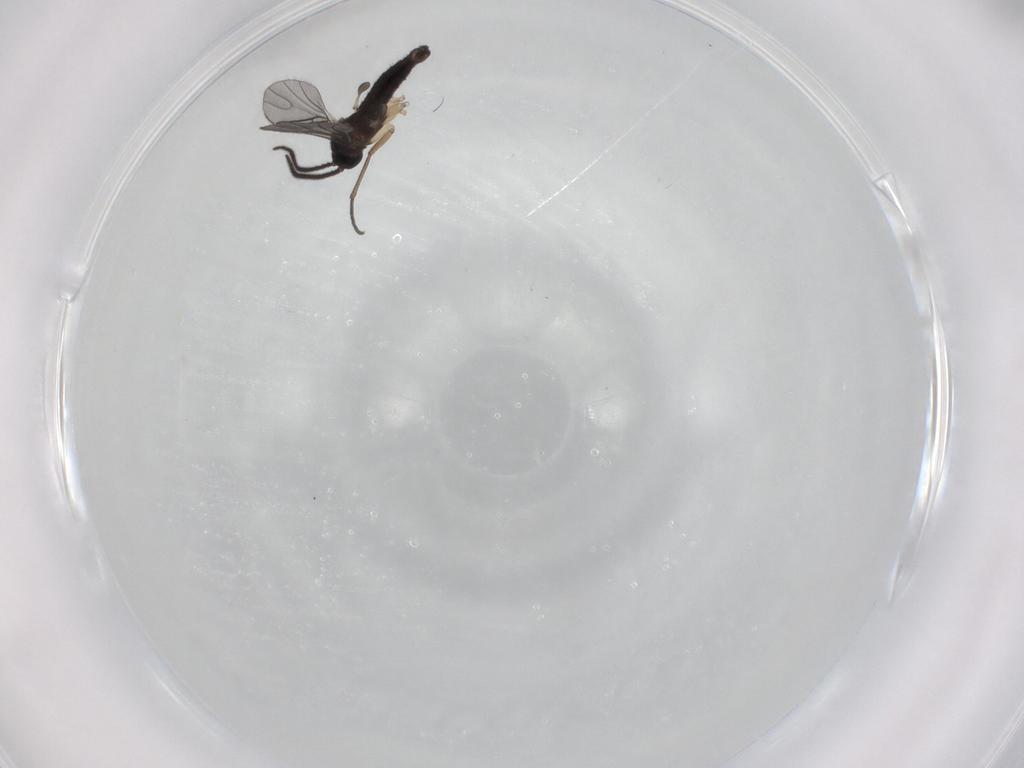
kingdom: Animalia
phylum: Arthropoda
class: Insecta
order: Diptera
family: Sciaridae
